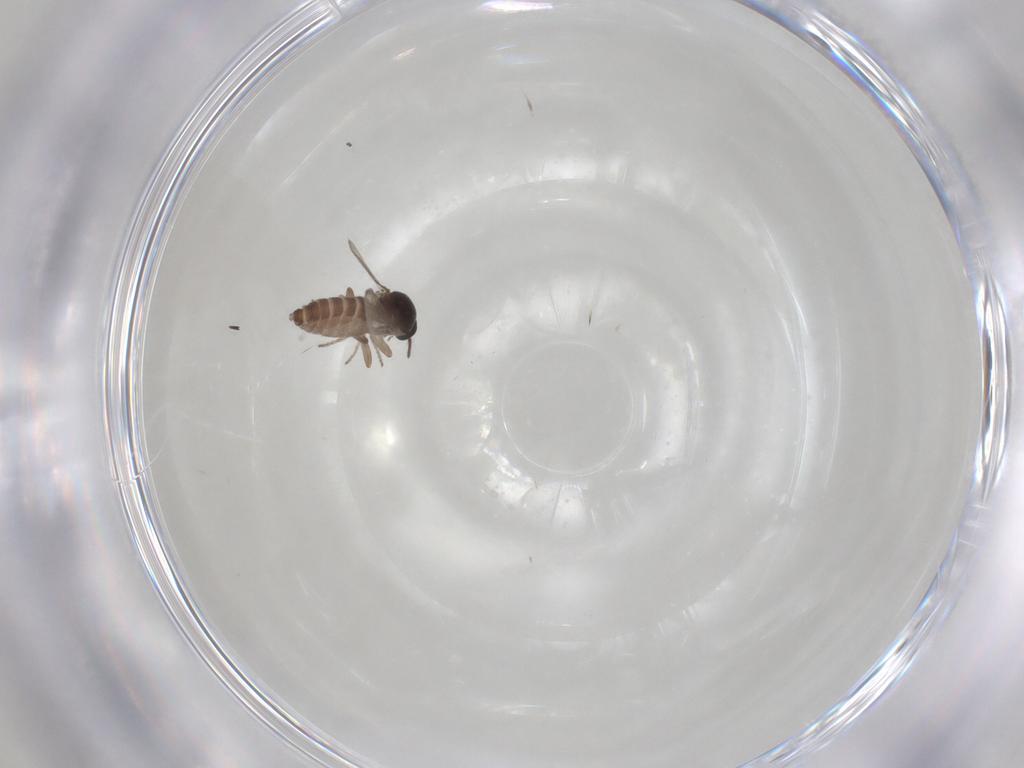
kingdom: Animalia
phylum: Arthropoda
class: Insecta
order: Diptera
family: Ceratopogonidae
